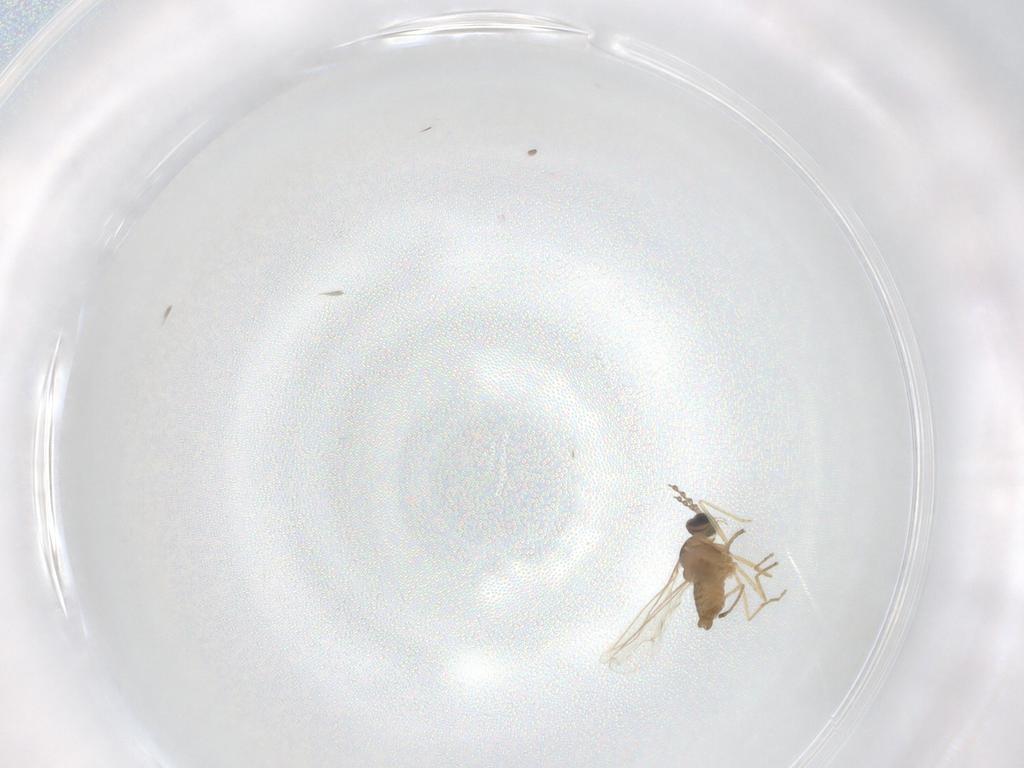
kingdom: Animalia
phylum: Arthropoda
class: Insecta
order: Diptera
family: Cecidomyiidae
